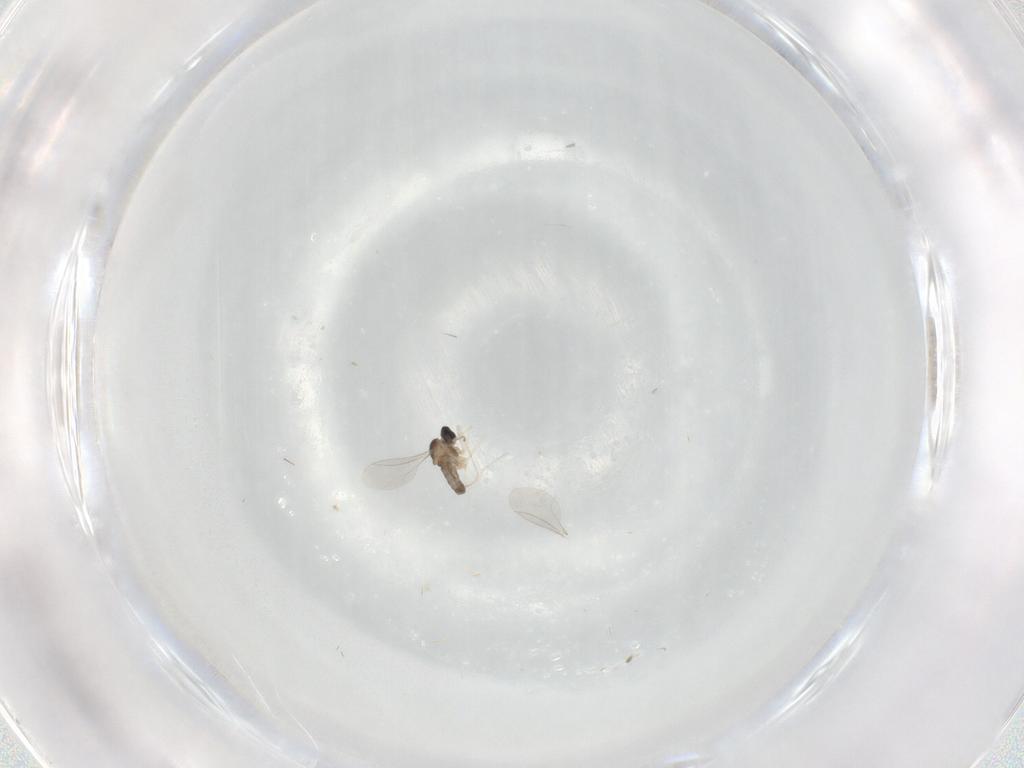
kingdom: Animalia
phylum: Arthropoda
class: Insecta
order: Diptera
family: Cecidomyiidae
